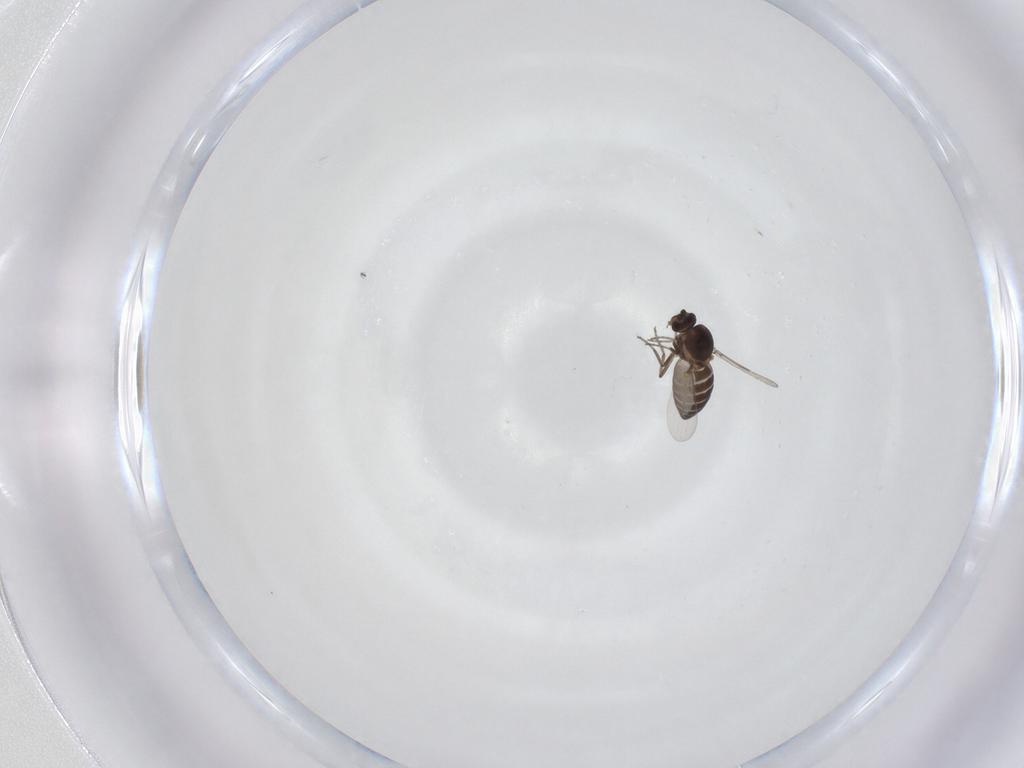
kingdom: Animalia
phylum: Arthropoda
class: Insecta
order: Diptera
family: Ceratopogonidae
